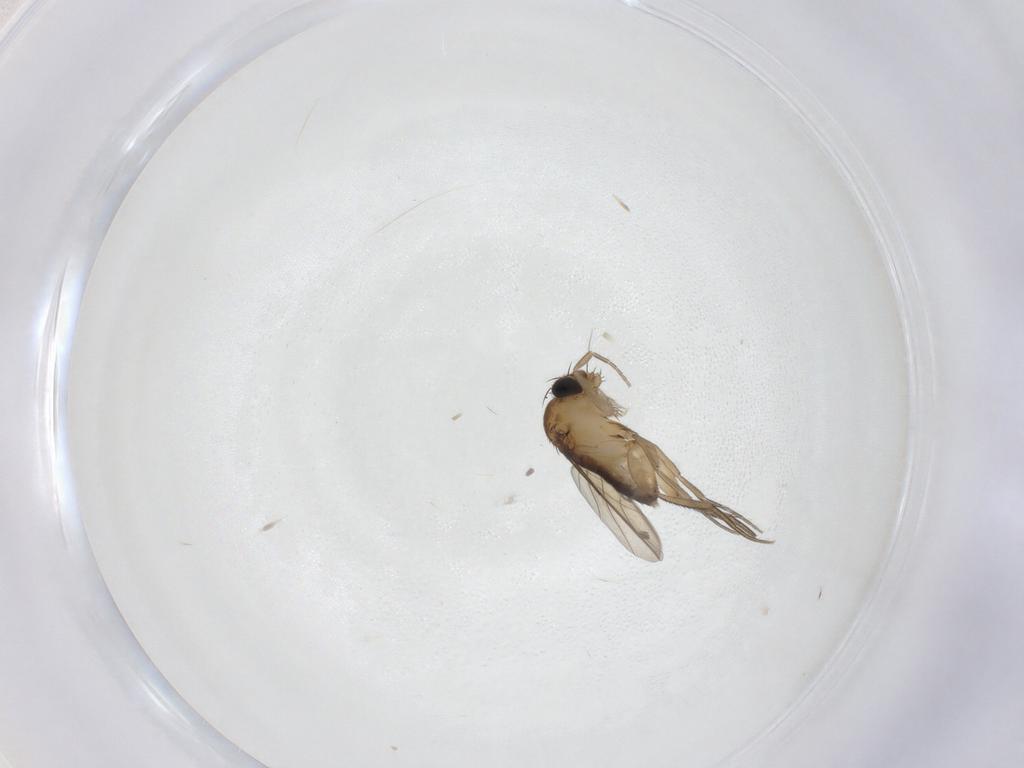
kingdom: Animalia
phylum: Arthropoda
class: Insecta
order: Diptera
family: Phoridae
